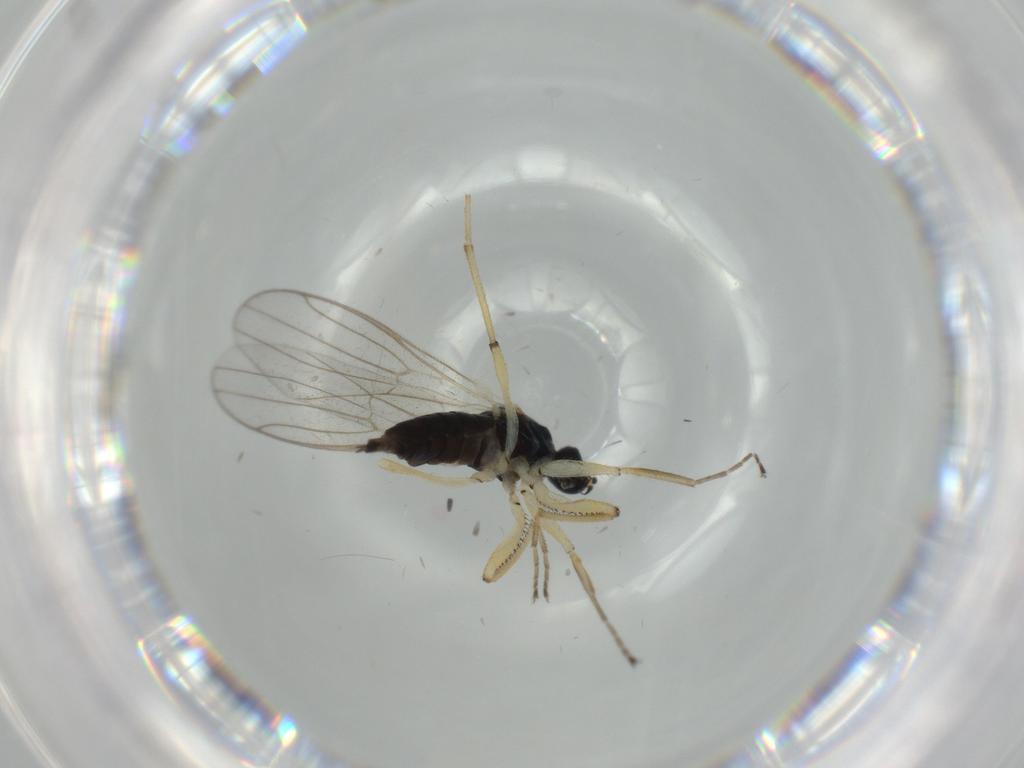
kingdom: Animalia
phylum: Arthropoda
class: Insecta
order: Diptera
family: Chironomidae
